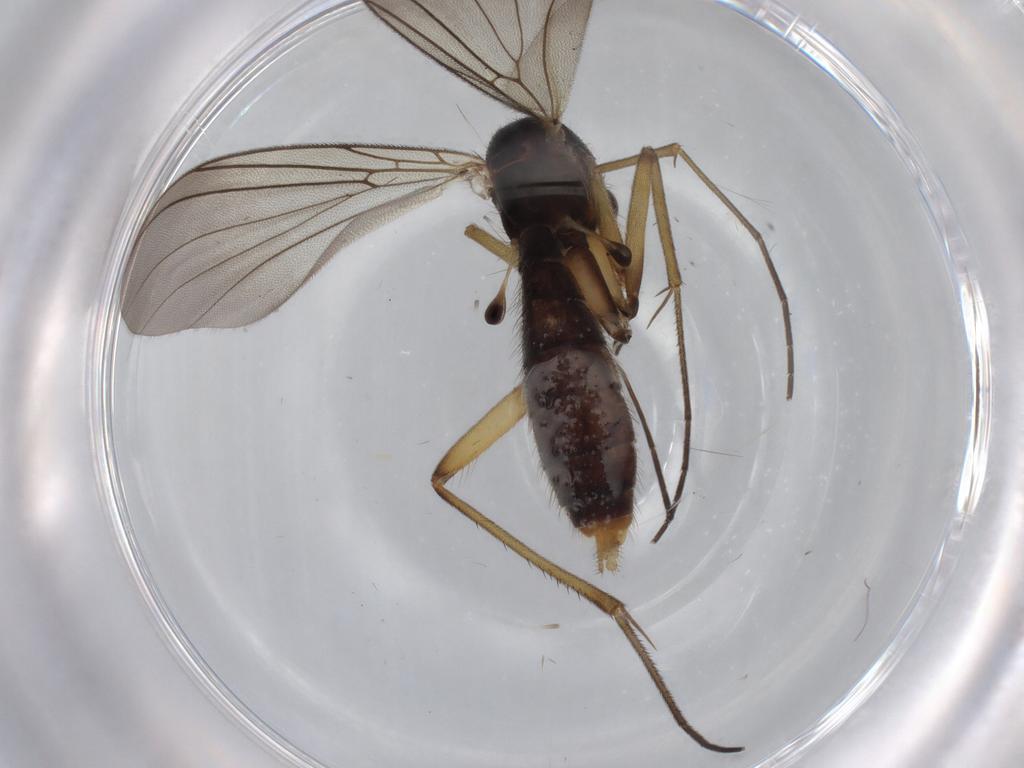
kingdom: Animalia
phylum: Arthropoda
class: Insecta
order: Diptera
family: Mycetophilidae
